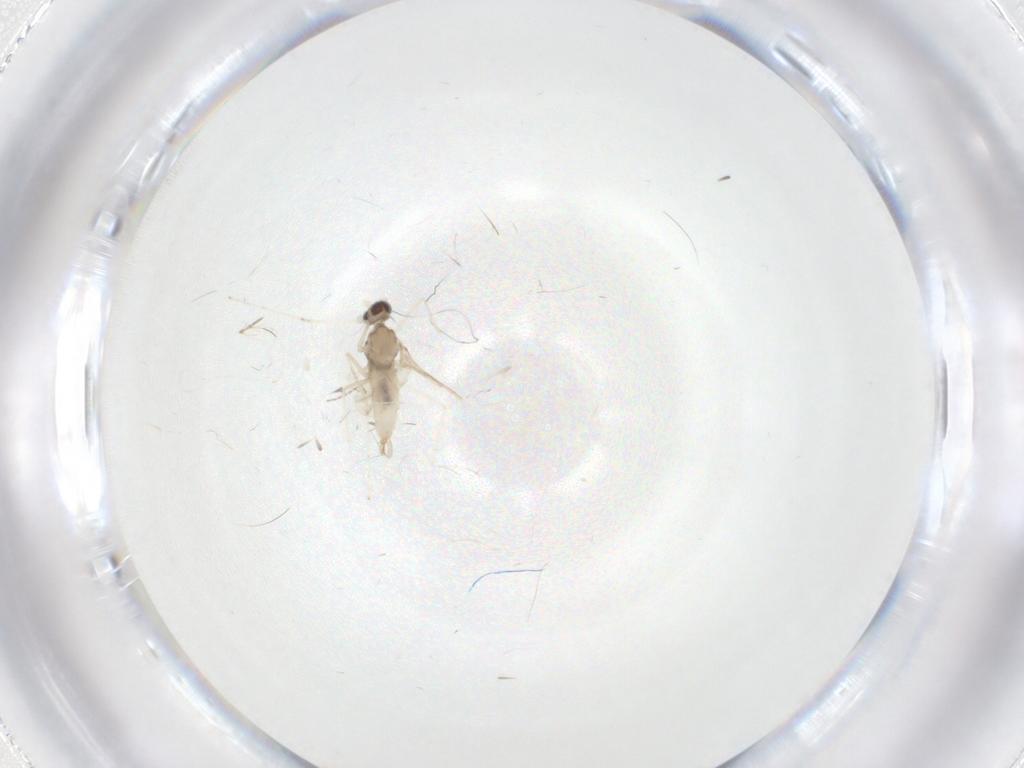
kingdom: Animalia
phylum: Arthropoda
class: Insecta
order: Diptera
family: Cecidomyiidae
